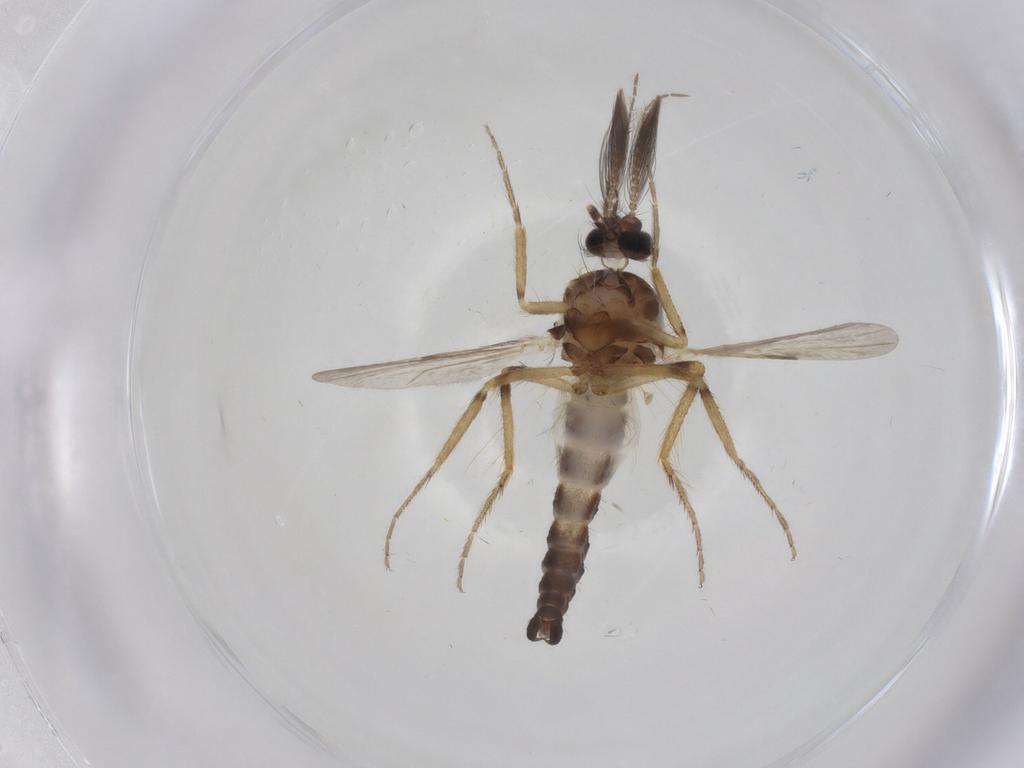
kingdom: Animalia
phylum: Arthropoda
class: Insecta
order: Diptera
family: Ceratopogonidae
